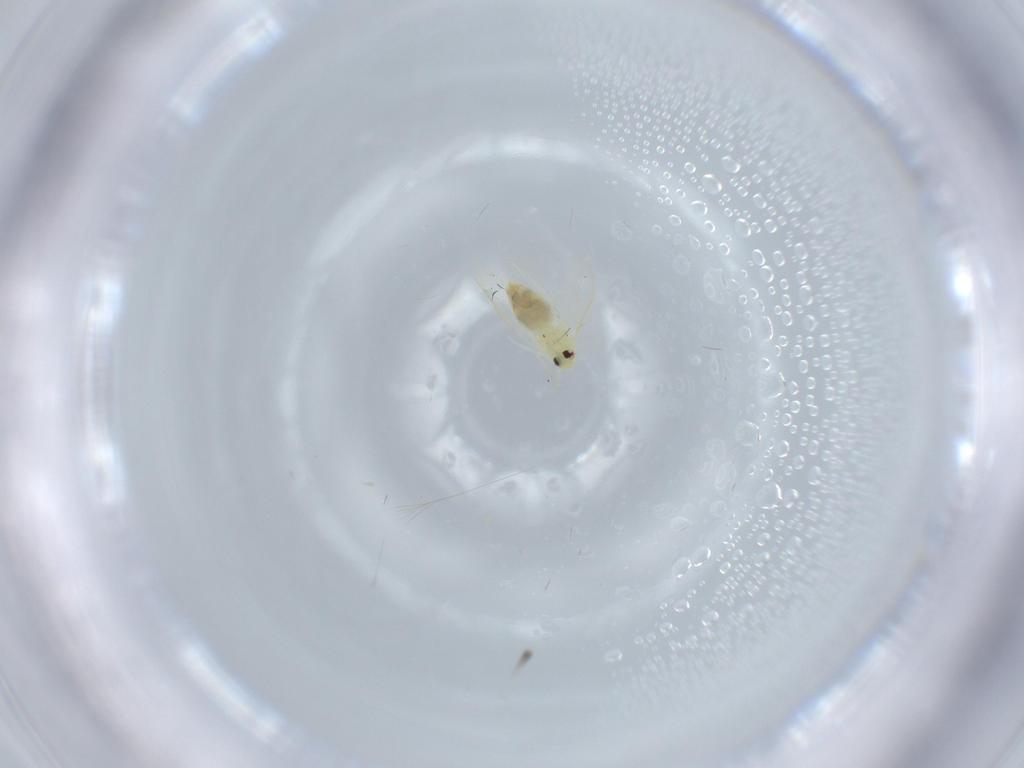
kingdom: Animalia
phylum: Arthropoda
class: Insecta
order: Hemiptera
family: Aleyrodidae
